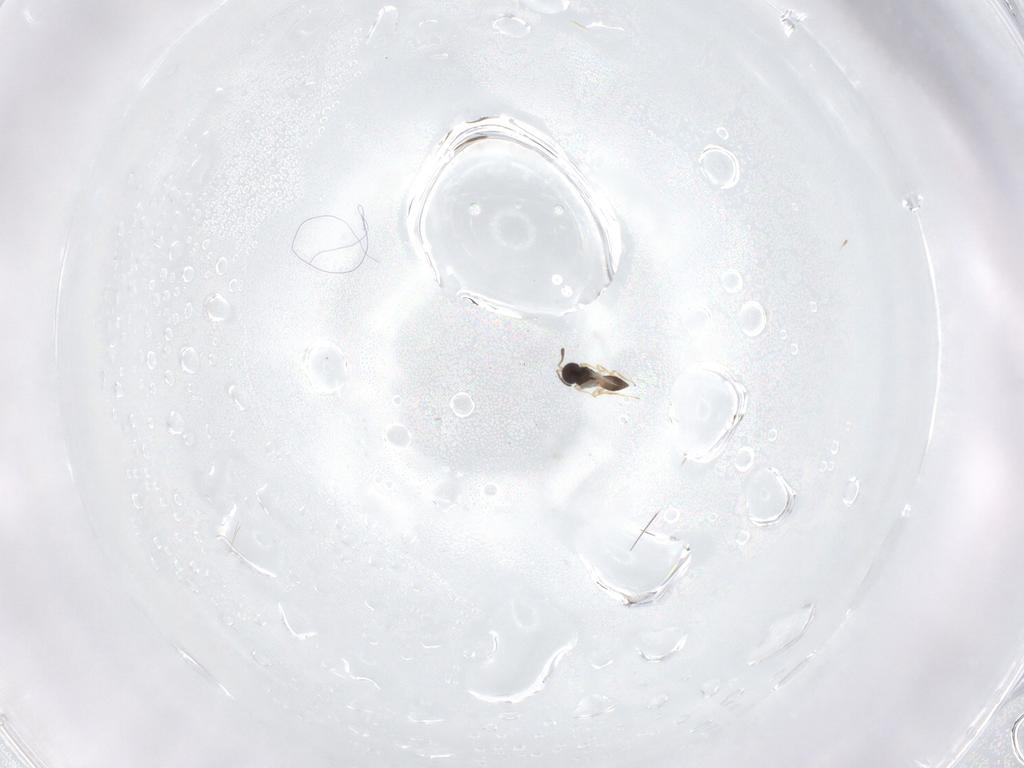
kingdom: Animalia
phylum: Arthropoda
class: Insecta
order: Hymenoptera
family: Scelionidae
